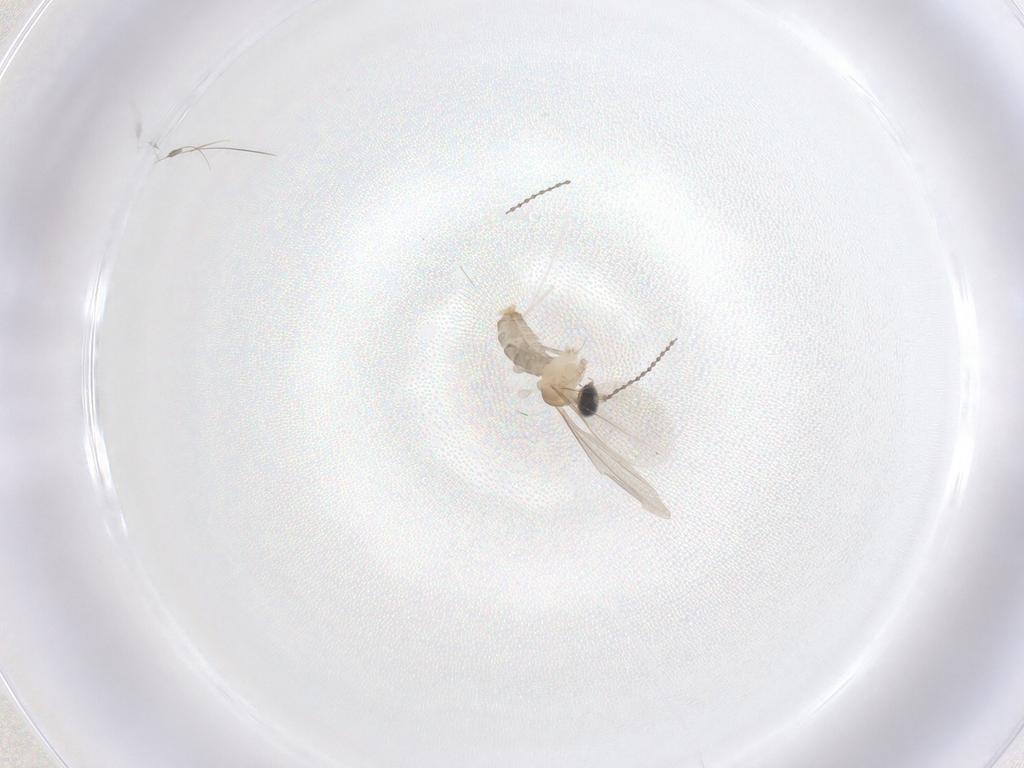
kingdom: Animalia
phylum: Arthropoda
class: Insecta
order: Diptera
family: Cecidomyiidae
